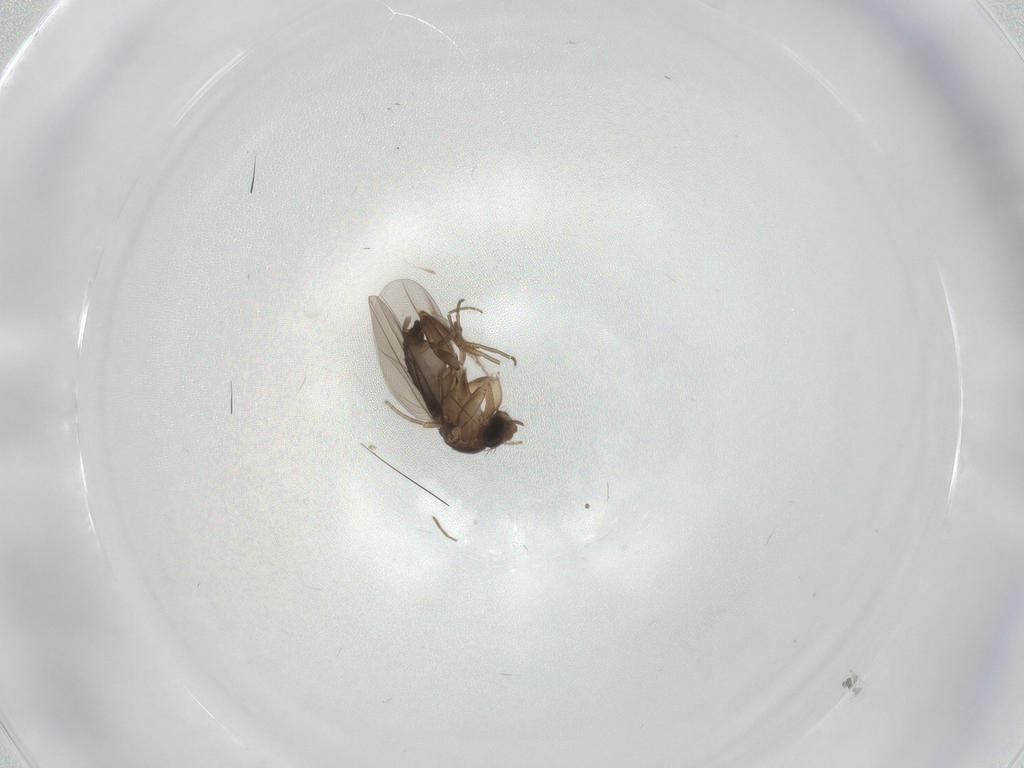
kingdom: Animalia
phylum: Arthropoda
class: Insecta
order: Diptera
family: Phoridae
